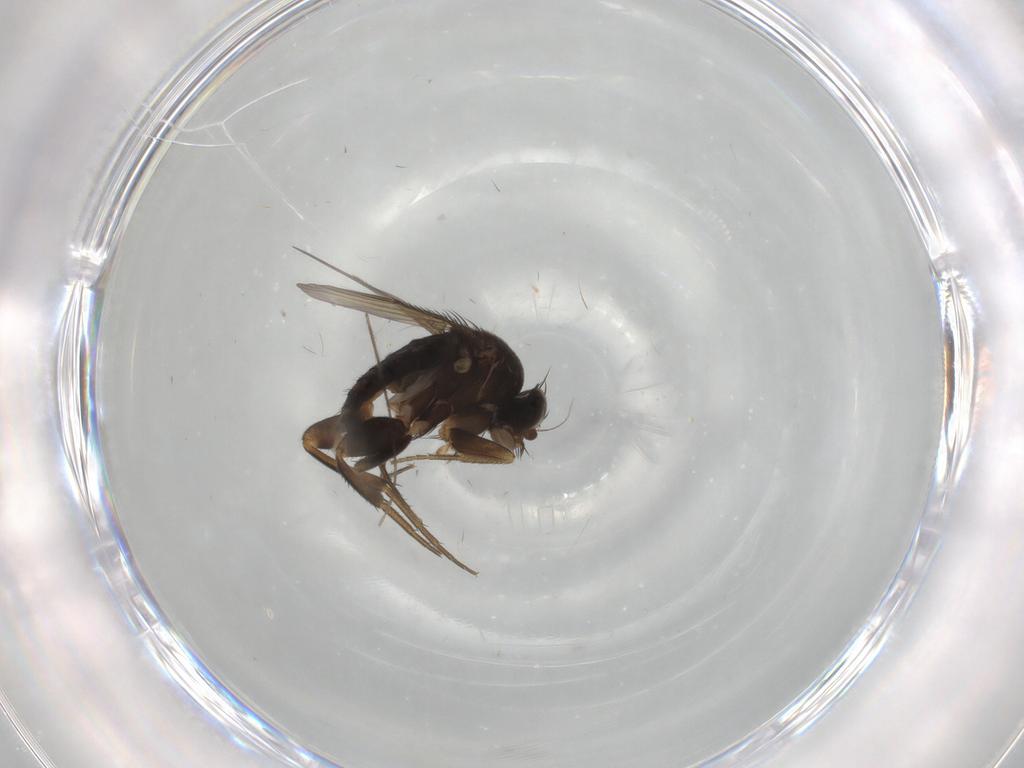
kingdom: Animalia
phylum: Arthropoda
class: Insecta
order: Diptera
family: Phoridae
